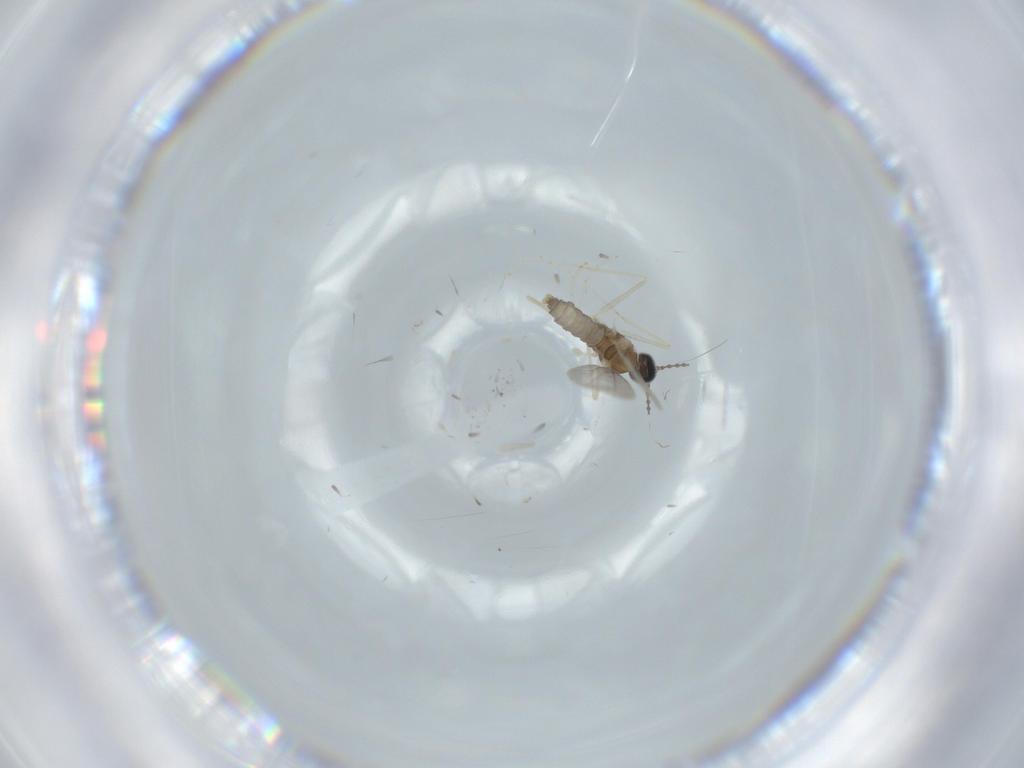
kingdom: Animalia
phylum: Arthropoda
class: Insecta
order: Diptera
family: Cecidomyiidae
